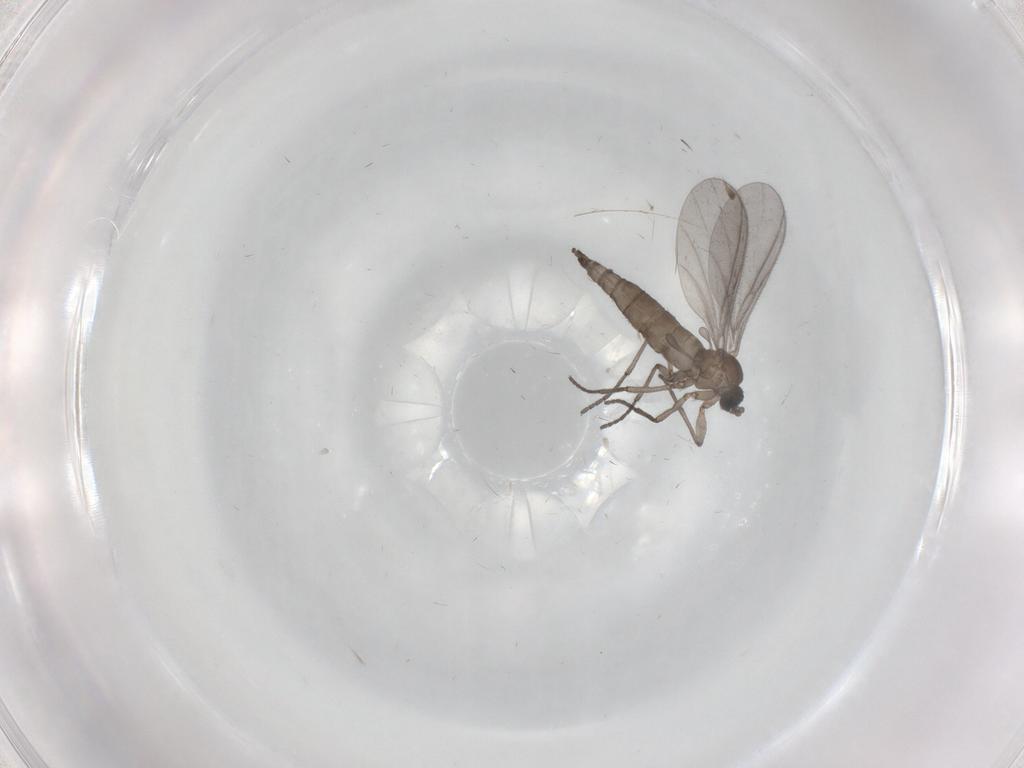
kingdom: Animalia
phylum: Arthropoda
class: Insecta
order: Diptera
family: Sciaridae
